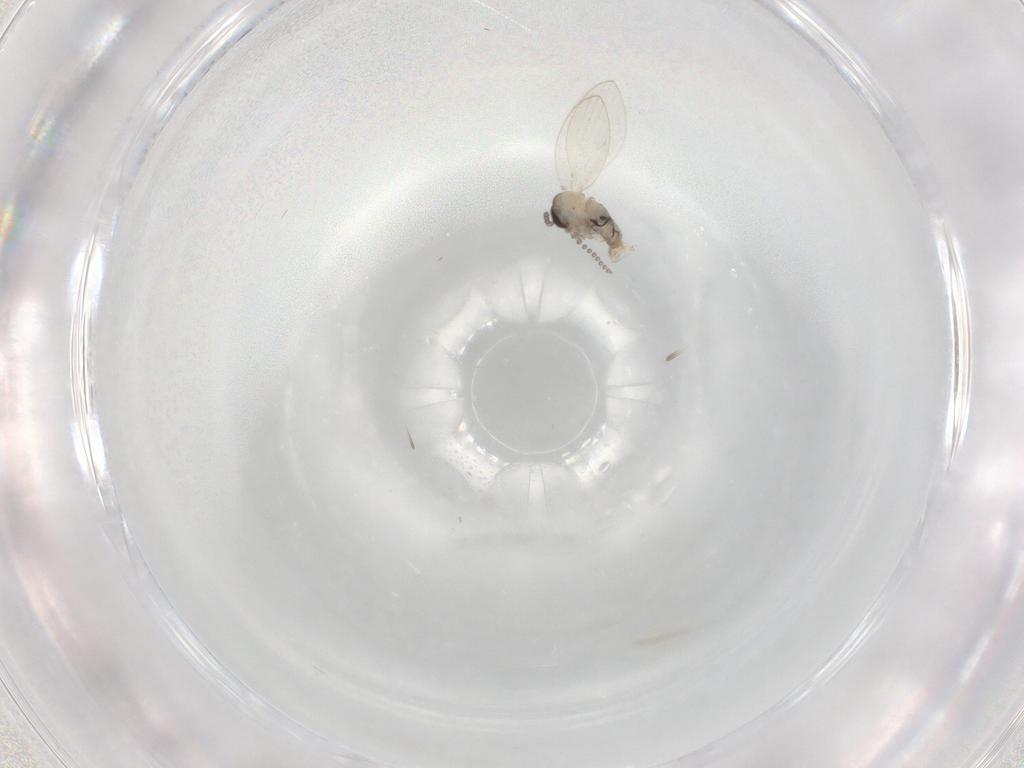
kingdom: Animalia
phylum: Arthropoda
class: Insecta
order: Diptera
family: Psychodidae
